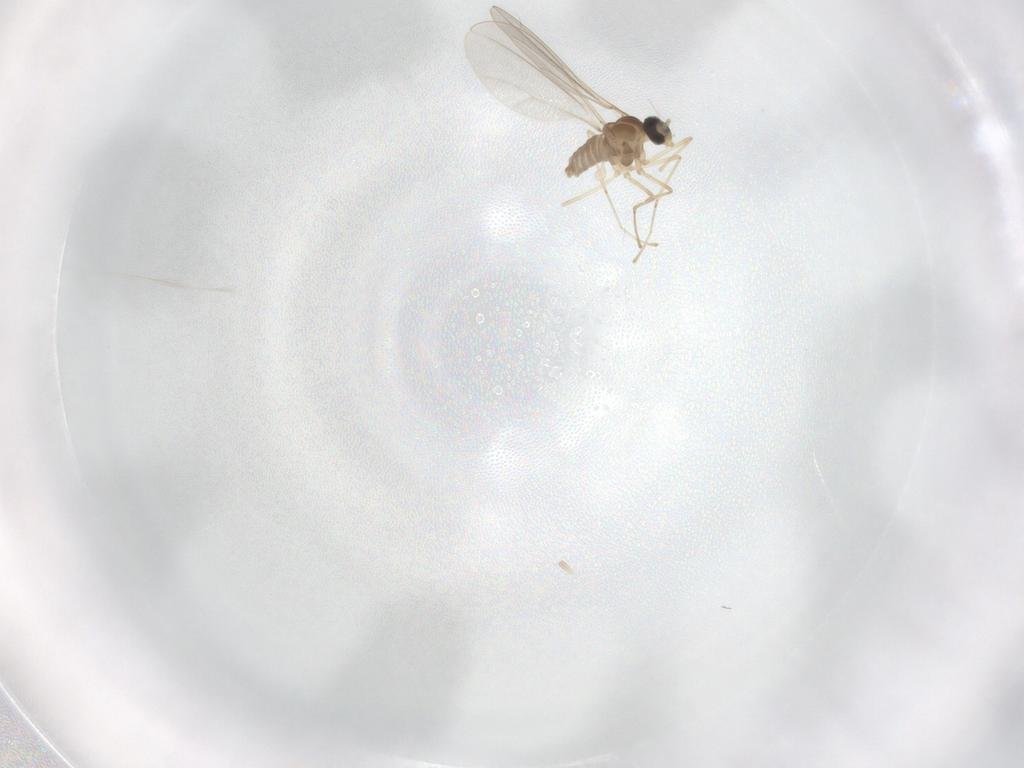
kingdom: Animalia
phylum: Arthropoda
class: Insecta
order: Diptera
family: Cecidomyiidae
